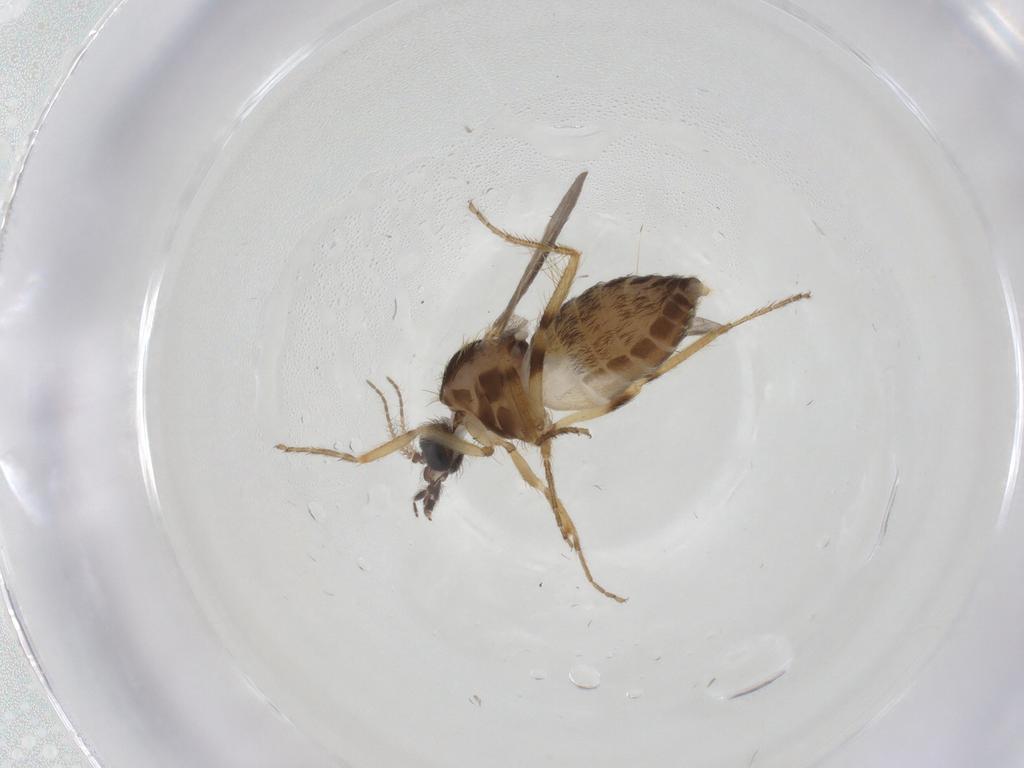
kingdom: Animalia
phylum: Arthropoda
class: Insecta
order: Diptera
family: Ceratopogonidae
